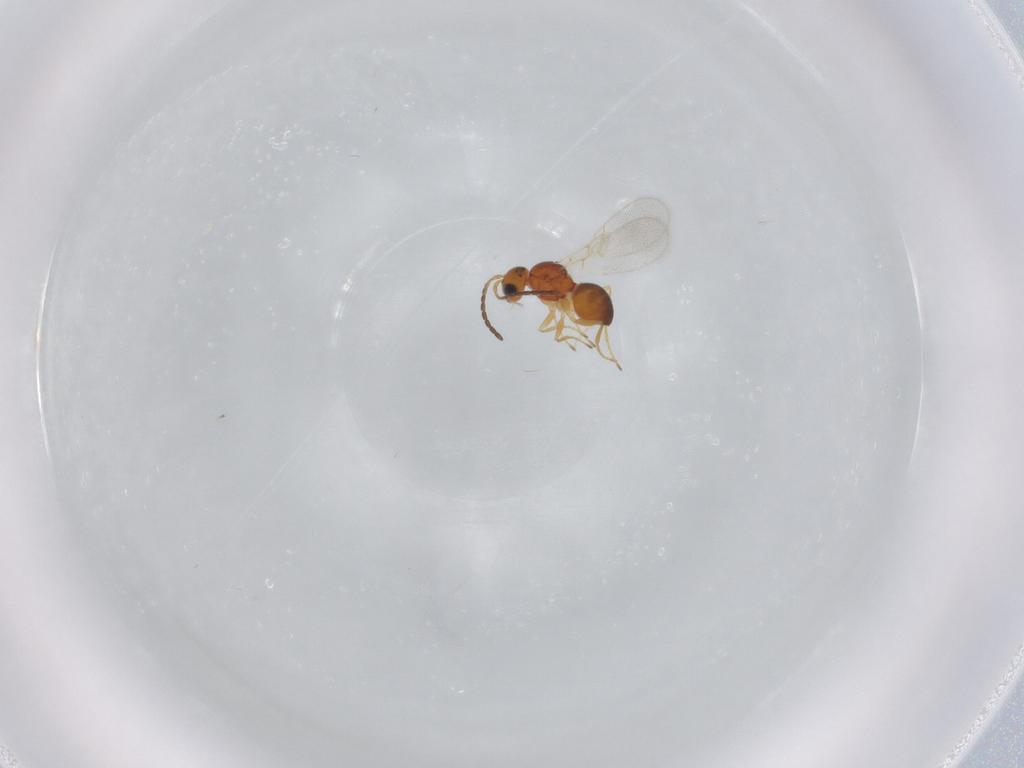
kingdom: Animalia
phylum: Arthropoda
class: Insecta
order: Hymenoptera
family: Figitidae
